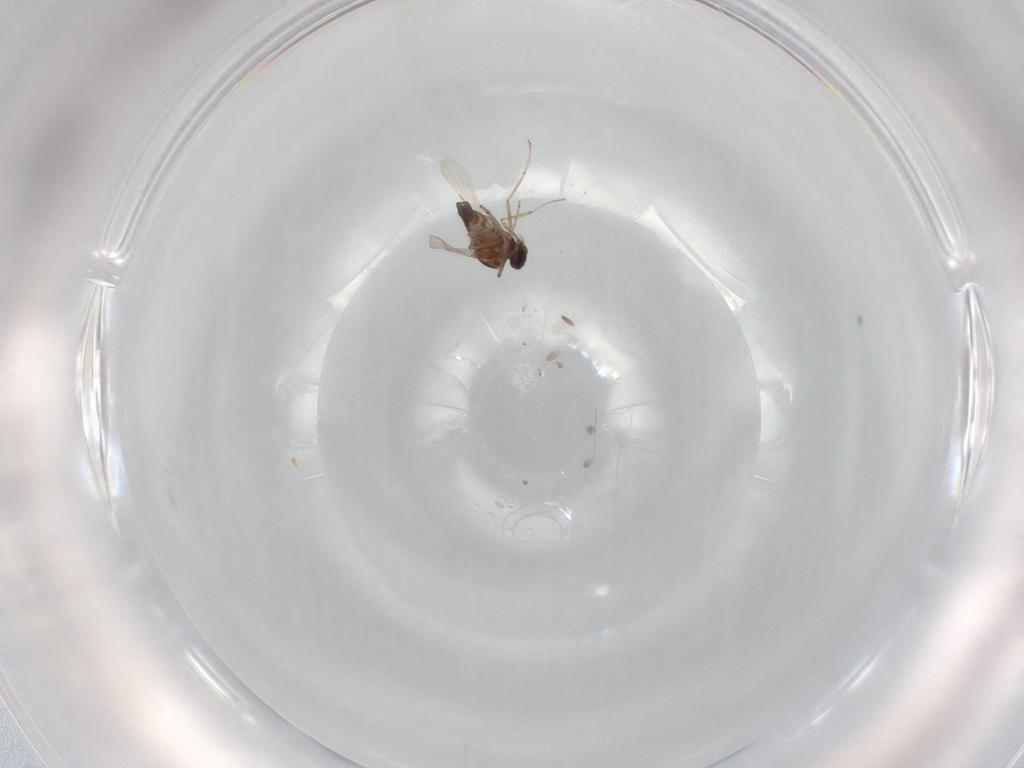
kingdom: Animalia
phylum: Arthropoda
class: Insecta
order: Diptera
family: Ceratopogonidae
